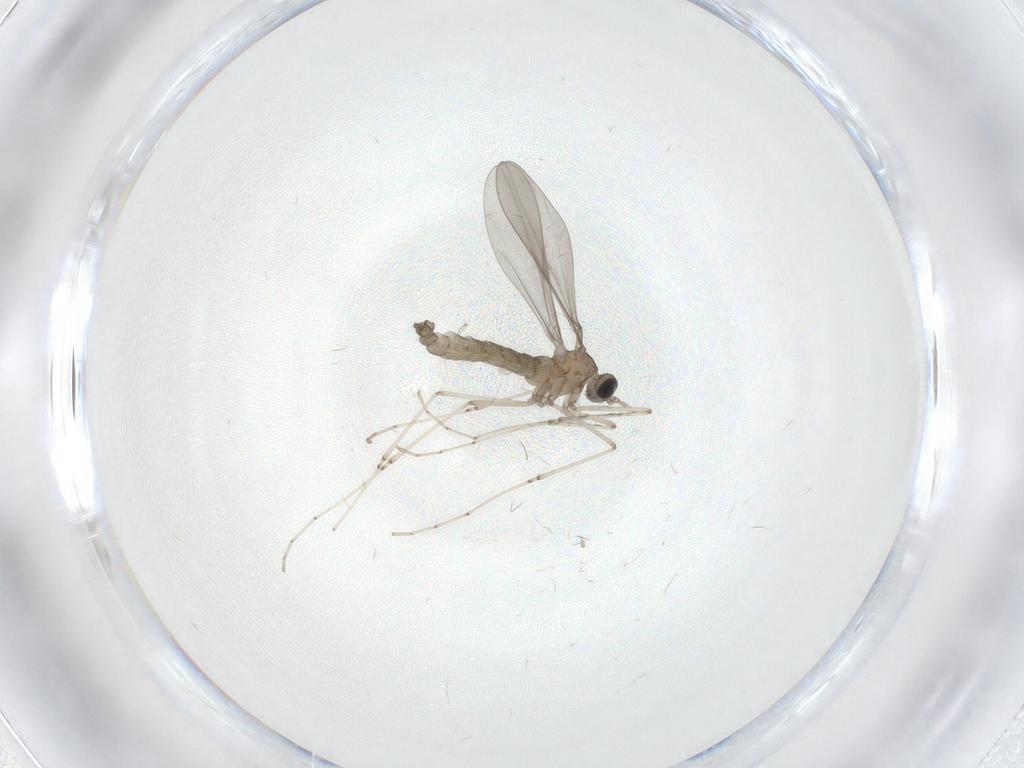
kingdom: Animalia
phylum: Arthropoda
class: Insecta
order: Diptera
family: Cecidomyiidae
